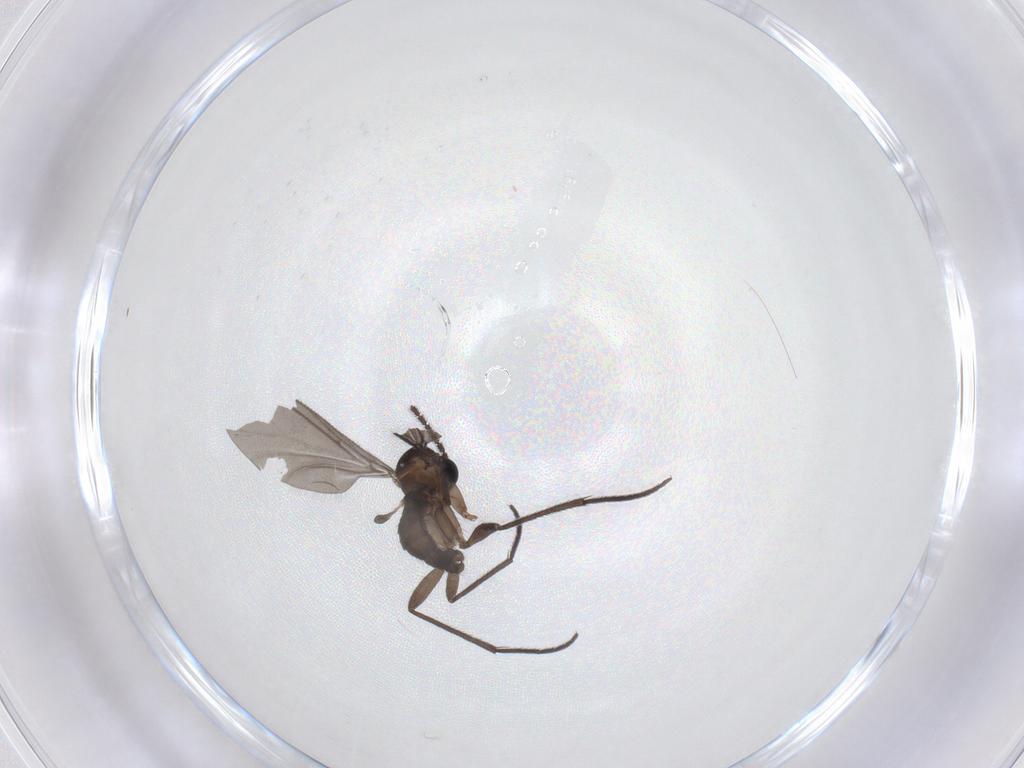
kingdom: Animalia
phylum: Arthropoda
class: Insecta
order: Diptera
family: Sciaridae
